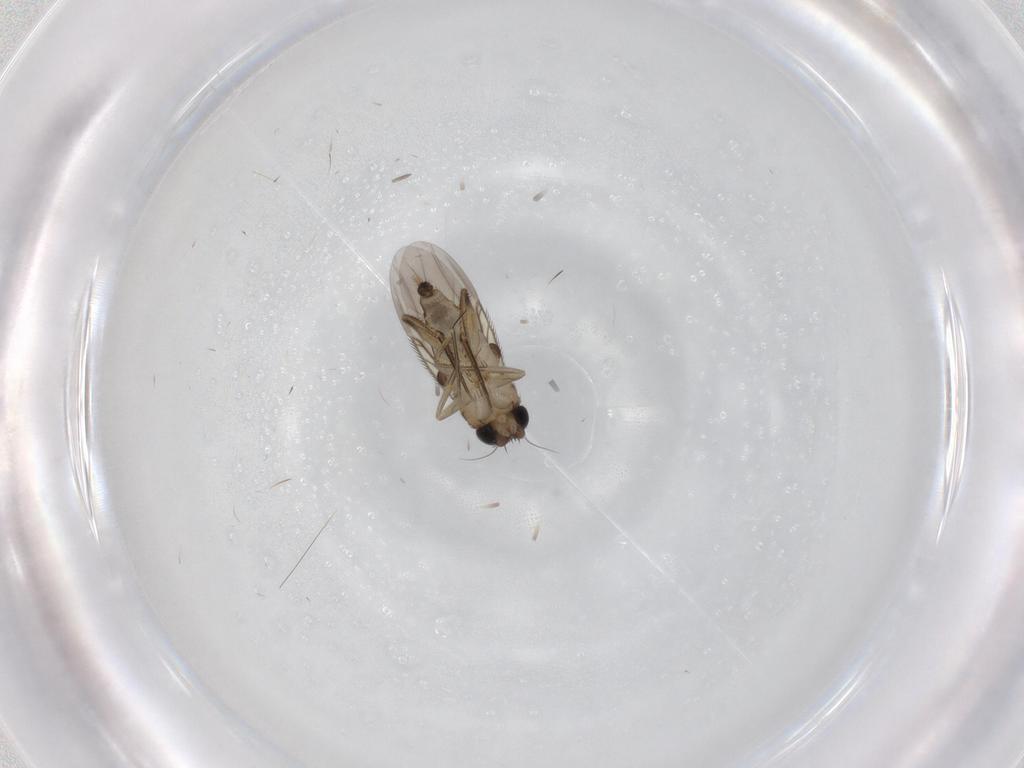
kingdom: Animalia
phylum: Arthropoda
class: Insecta
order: Diptera
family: Phoridae
